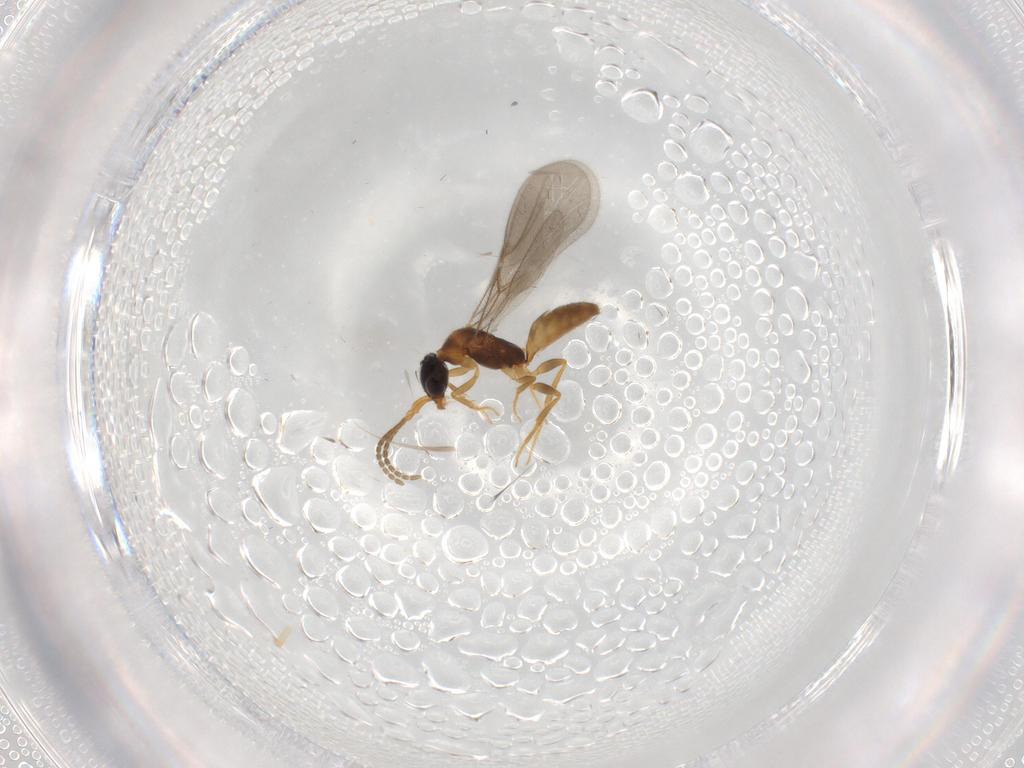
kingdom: Animalia
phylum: Arthropoda
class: Insecta
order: Hymenoptera
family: Bethylidae
